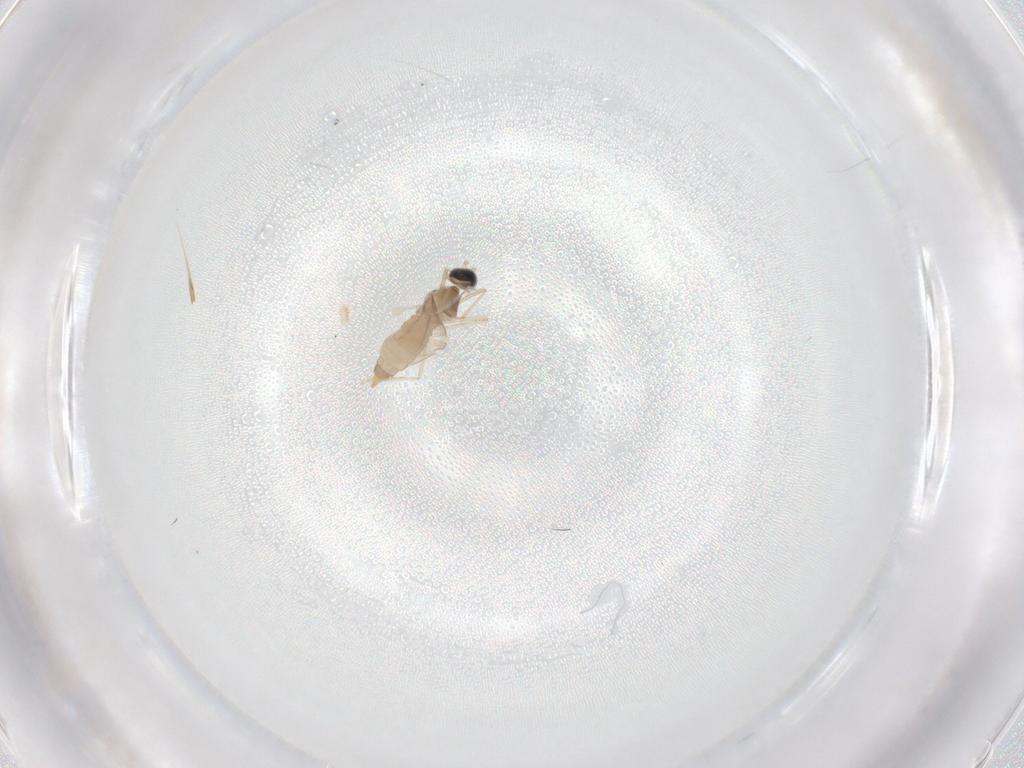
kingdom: Animalia
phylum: Arthropoda
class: Insecta
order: Diptera
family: Cecidomyiidae
